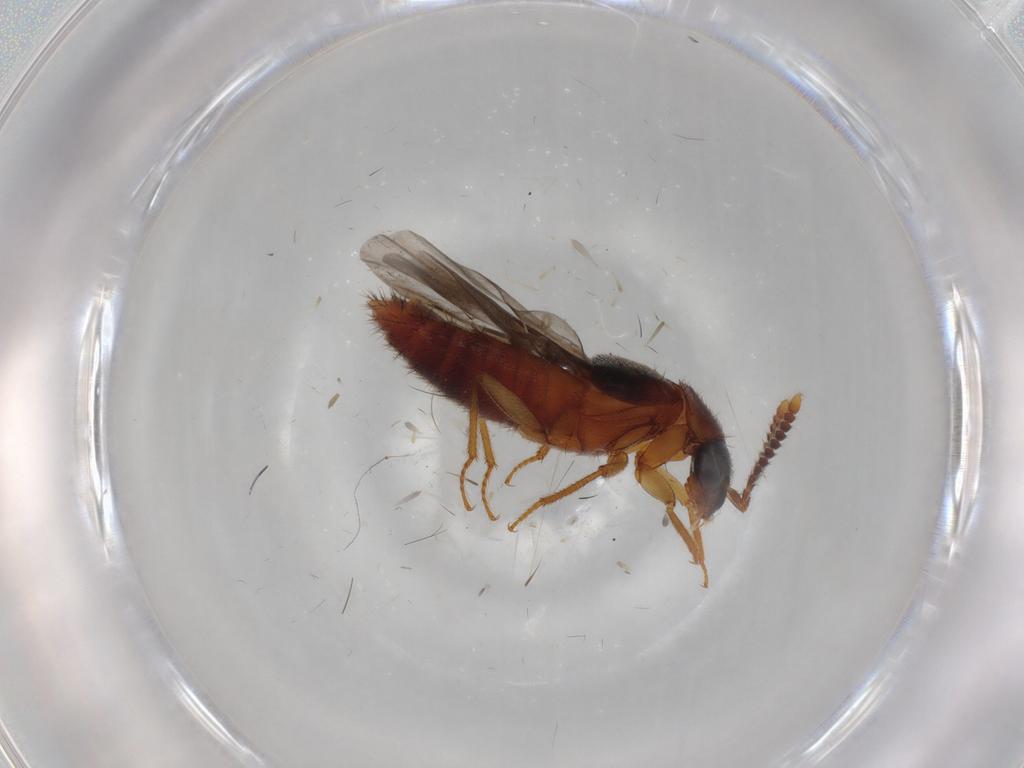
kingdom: Animalia
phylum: Arthropoda
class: Insecta
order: Coleoptera
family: Staphylinidae
